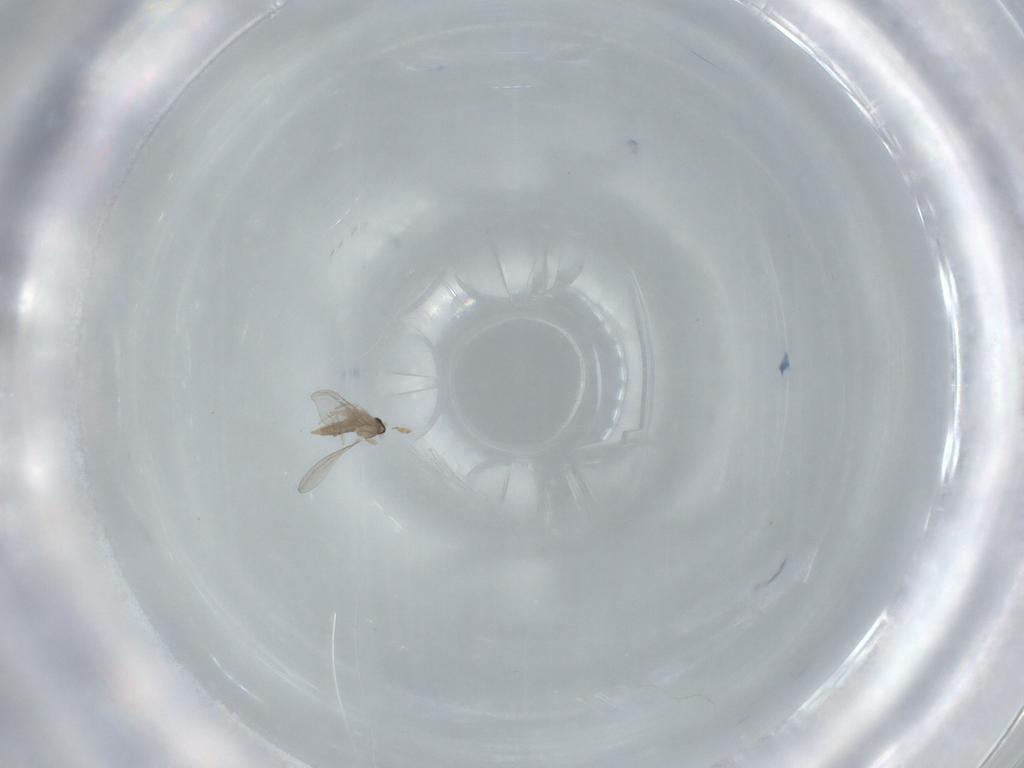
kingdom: Animalia
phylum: Arthropoda
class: Insecta
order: Diptera
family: Cecidomyiidae
